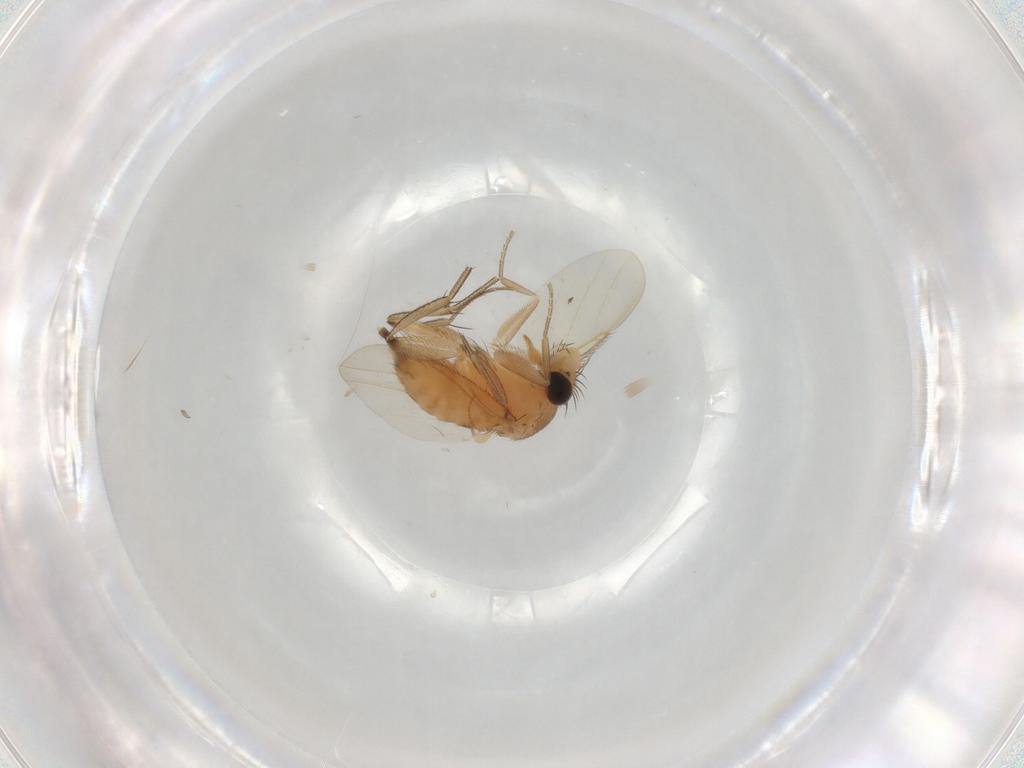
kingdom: Animalia
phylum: Arthropoda
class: Insecta
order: Diptera
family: Phoridae
